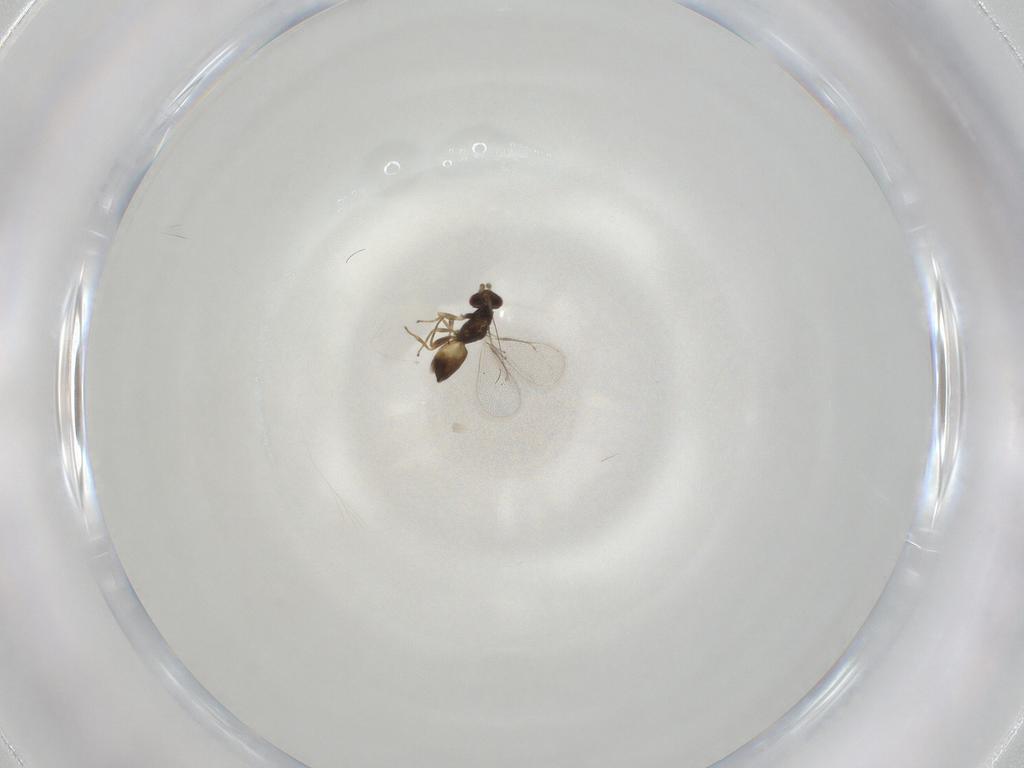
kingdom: Animalia
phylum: Arthropoda
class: Insecta
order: Hymenoptera
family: Eulophidae
